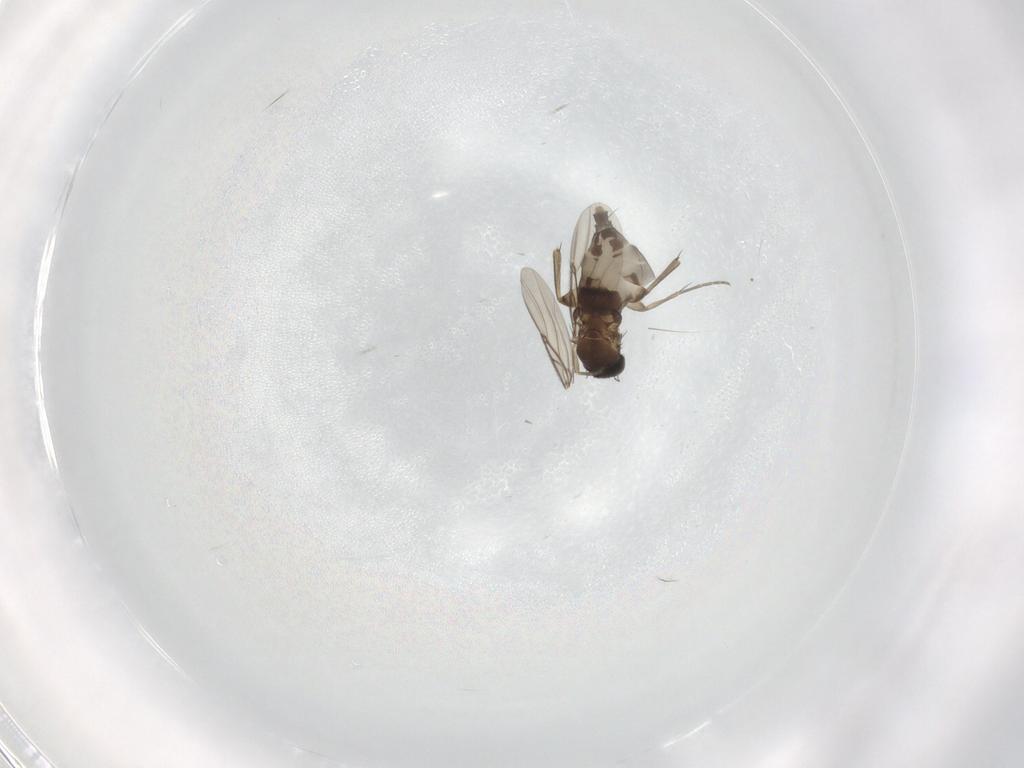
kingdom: Animalia
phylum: Arthropoda
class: Insecta
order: Diptera
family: Phoridae
